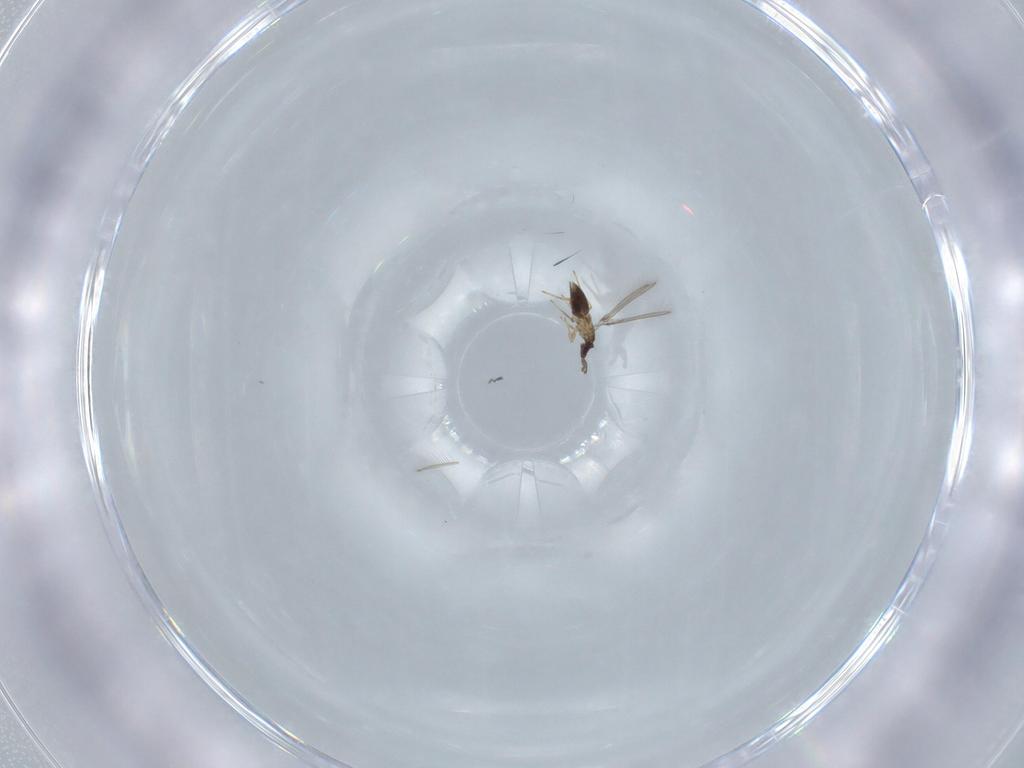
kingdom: Animalia
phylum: Arthropoda
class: Insecta
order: Hymenoptera
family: Mymaridae
